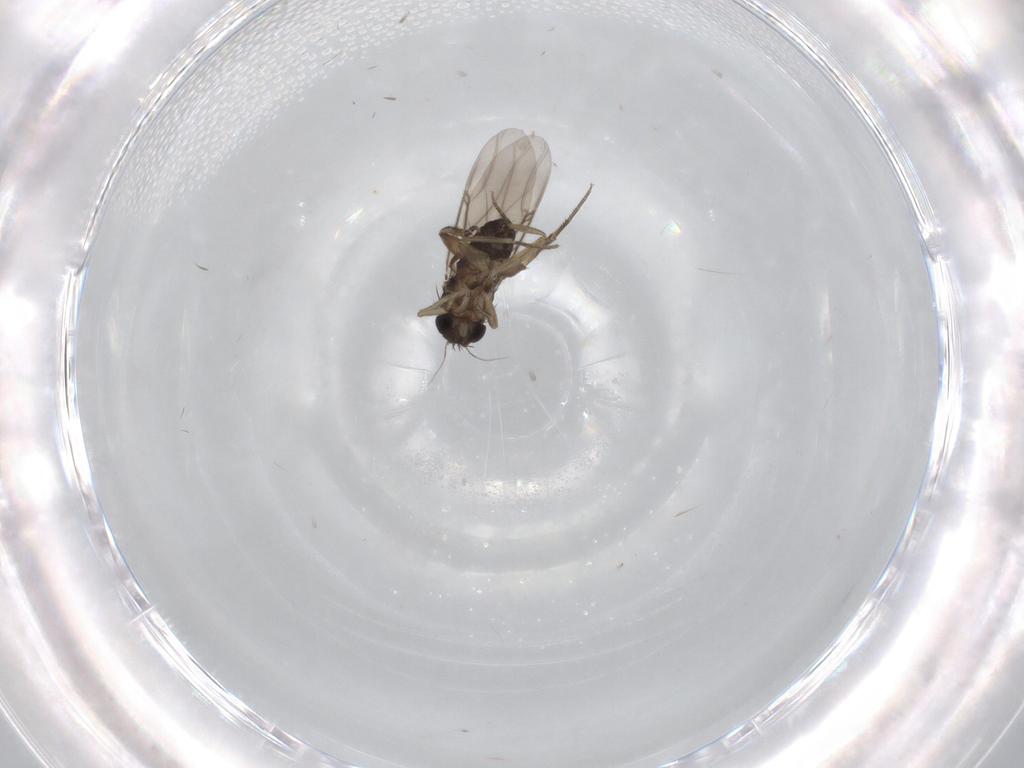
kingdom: Animalia
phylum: Arthropoda
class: Insecta
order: Diptera
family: Phoridae
